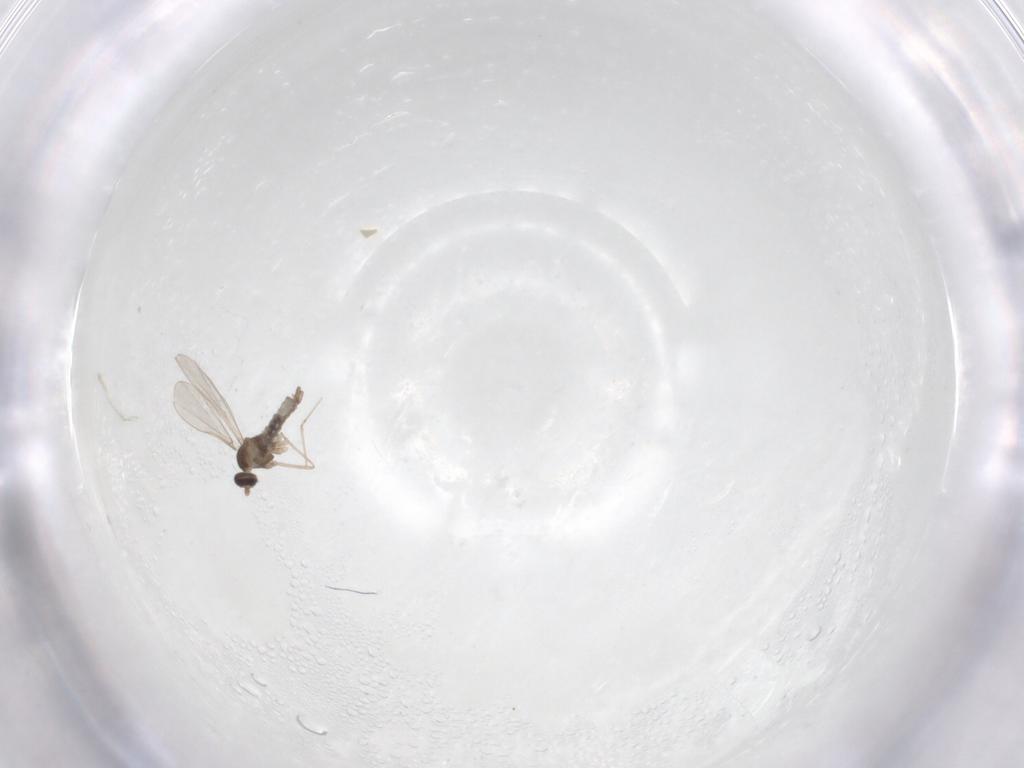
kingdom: Animalia
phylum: Arthropoda
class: Insecta
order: Diptera
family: Cecidomyiidae
